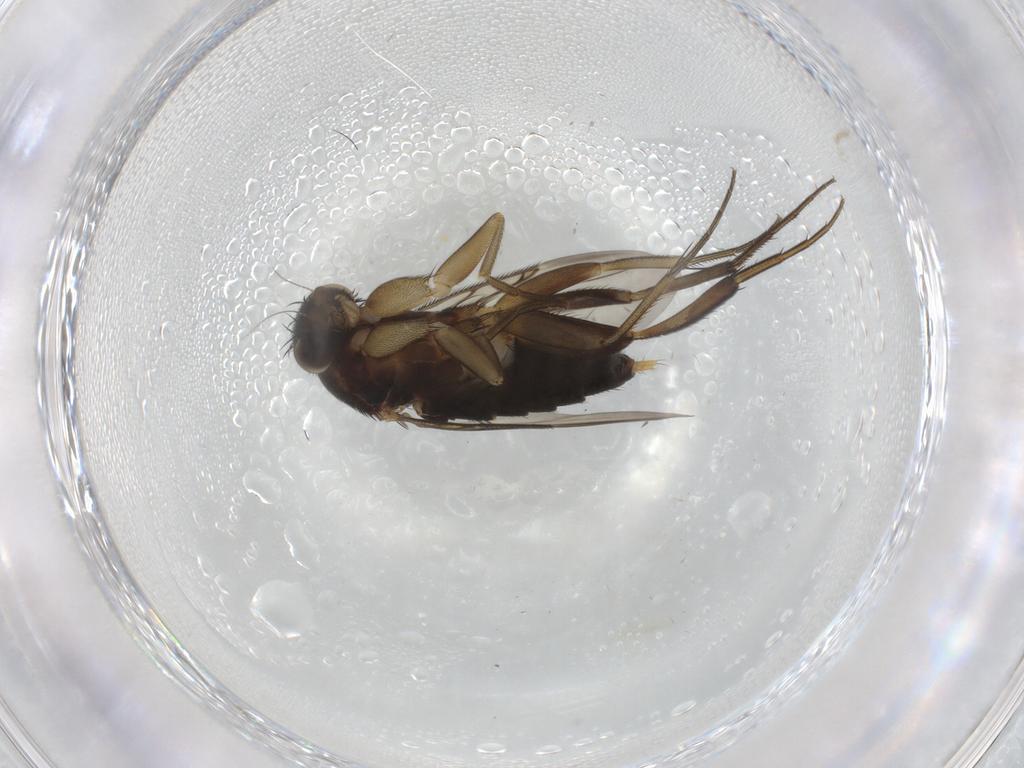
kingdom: Animalia
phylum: Arthropoda
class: Insecta
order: Diptera
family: Phoridae
